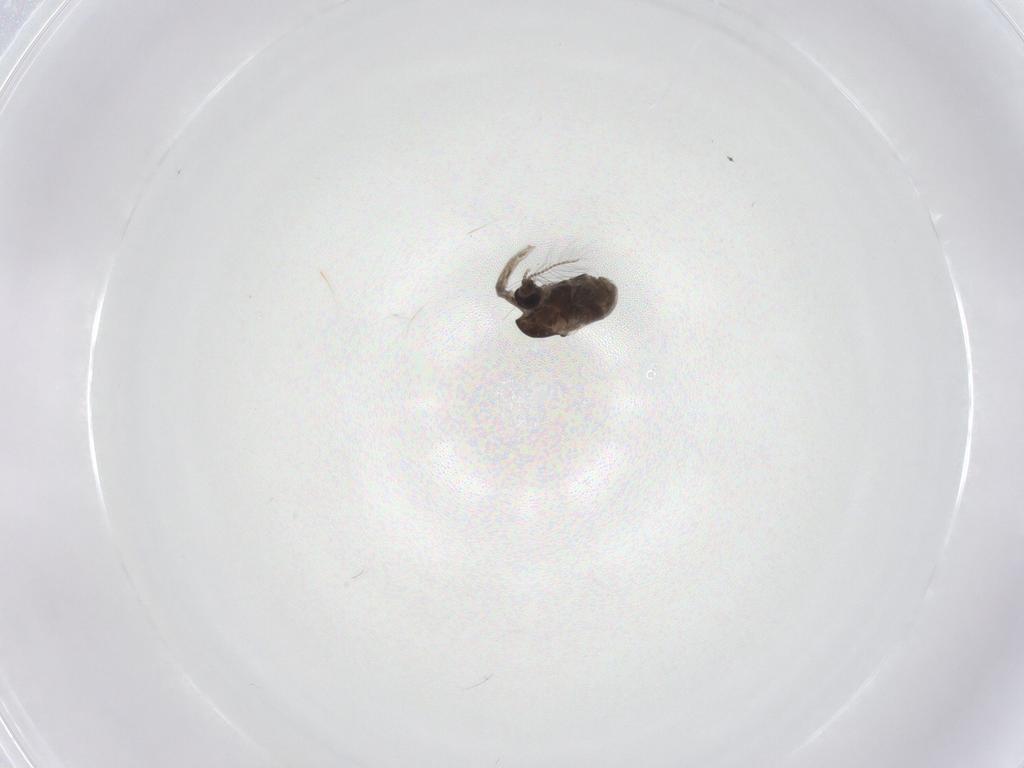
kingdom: Animalia
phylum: Arthropoda
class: Insecta
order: Diptera
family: Chironomidae
